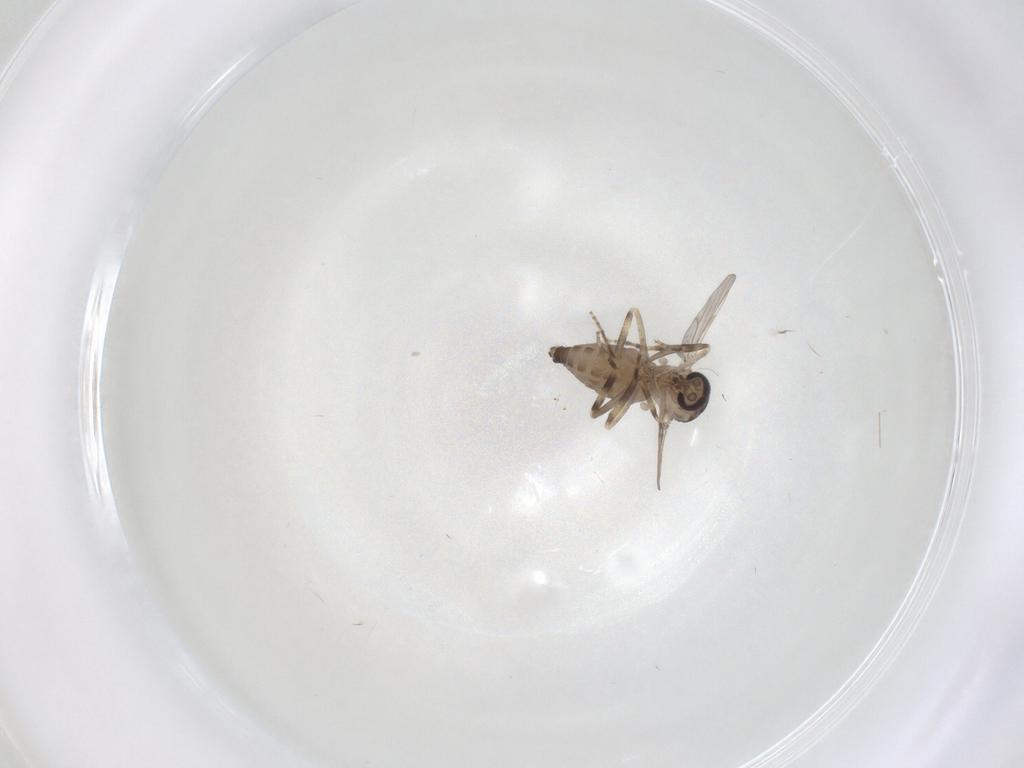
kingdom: Animalia
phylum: Arthropoda
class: Insecta
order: Diptera
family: Ceratopogonidae
